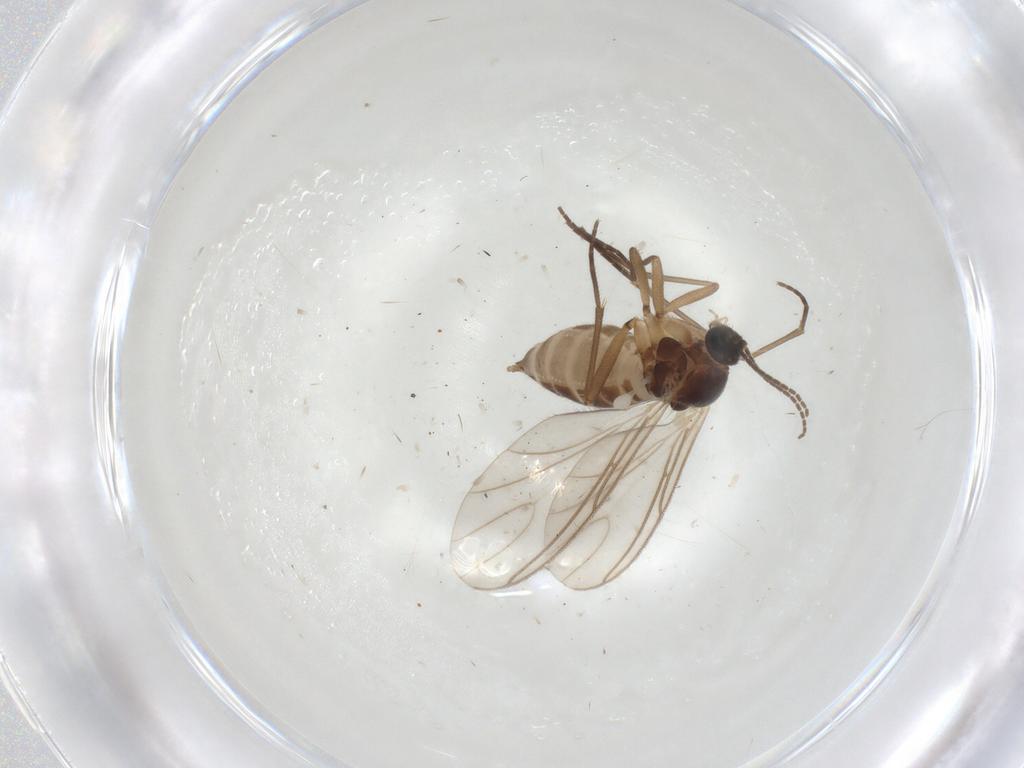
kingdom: Animalia
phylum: Arthropoda
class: Insecta
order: Diptera
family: Sciaridae
